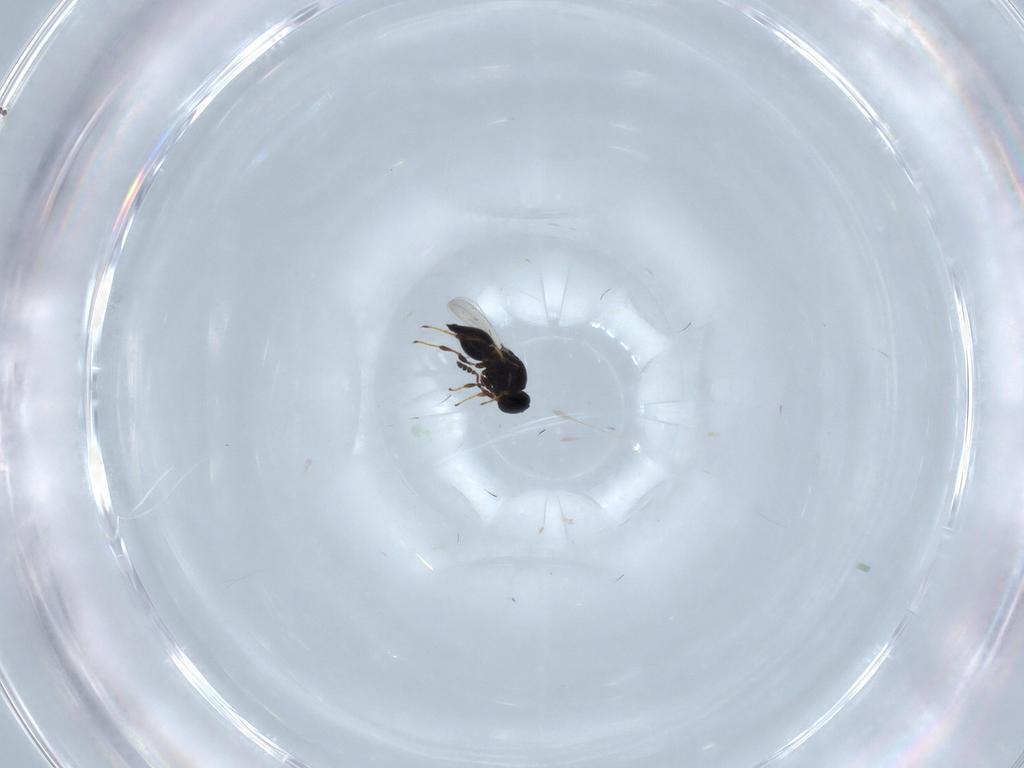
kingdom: Animalia
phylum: Arthropoda
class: Insecta
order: Hymenoptera
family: Platygastridae
